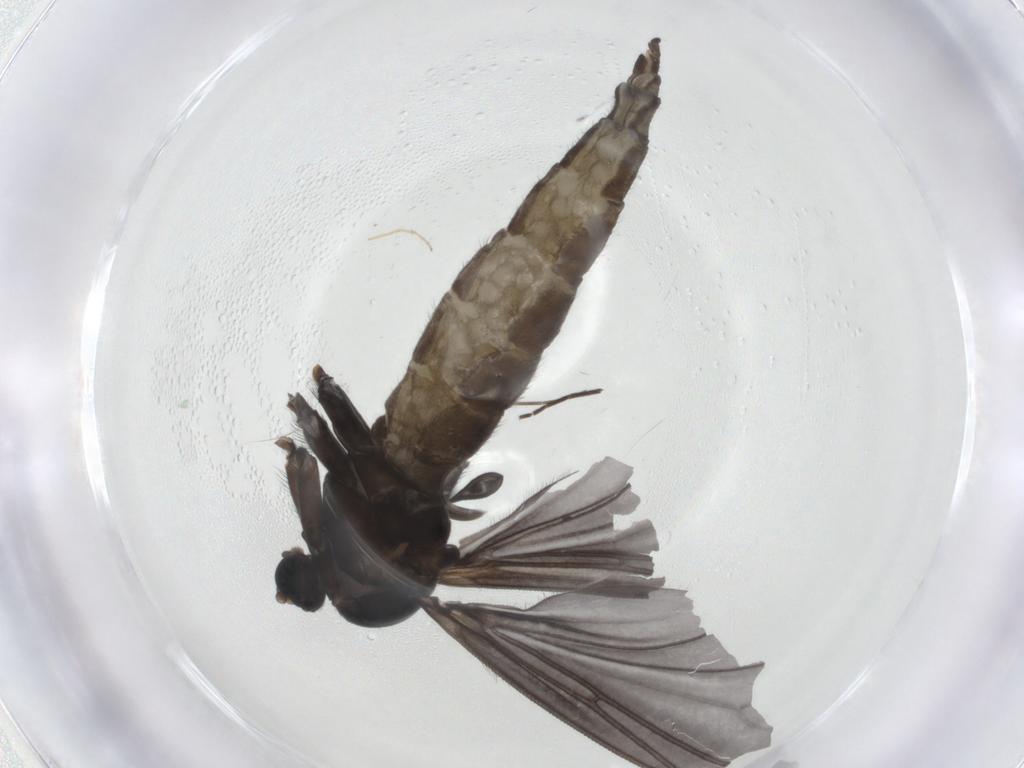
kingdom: Animalia
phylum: Arthropoda
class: Insecta
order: Diptera
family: Sciaridae
